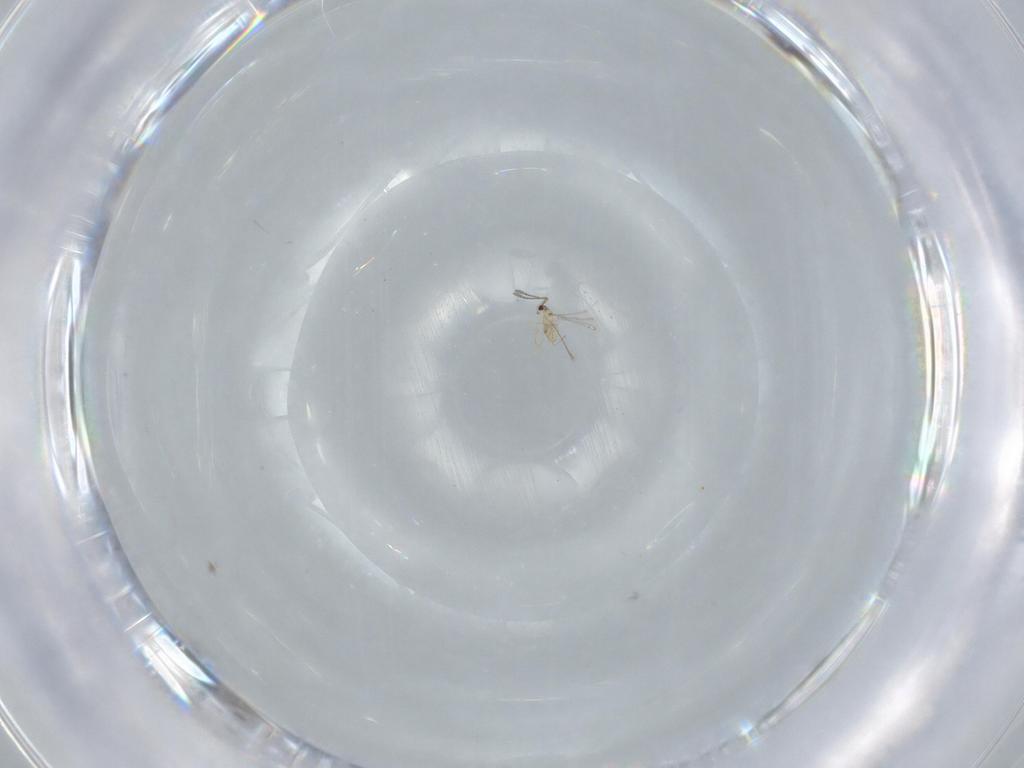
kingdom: Animalia
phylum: Arthropoda
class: Insecta
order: Hymenoptera
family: Mymaridae
